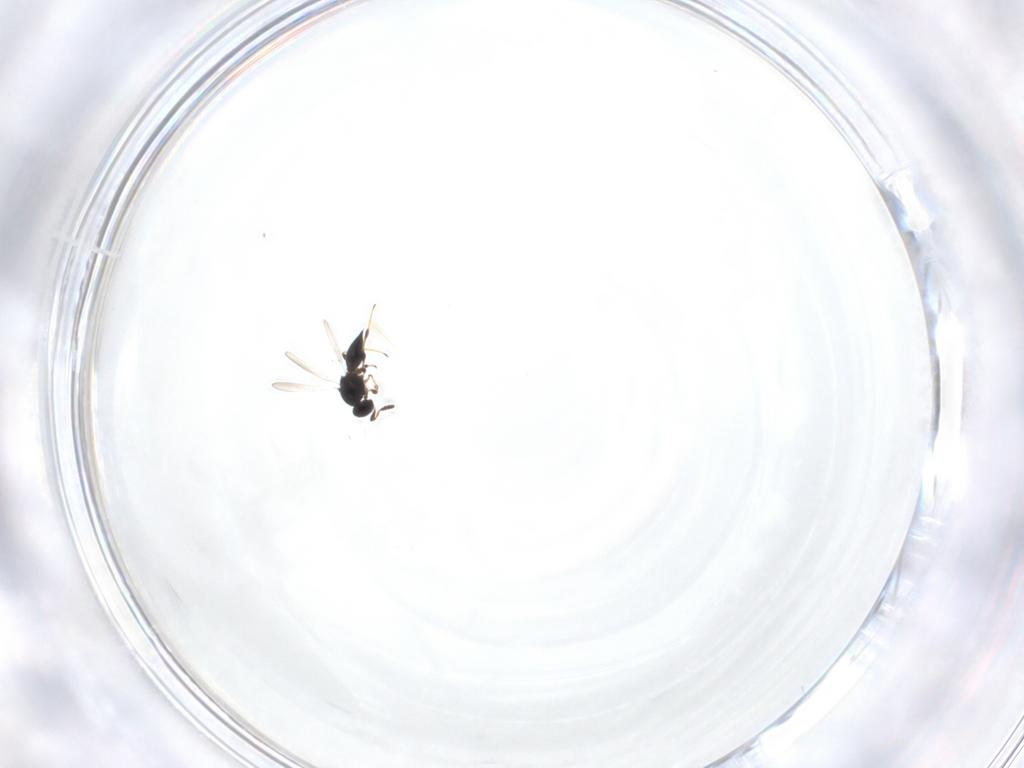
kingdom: Animalia
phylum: Arthropoda
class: Insecta
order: Hymenoptera
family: Platygastridae
